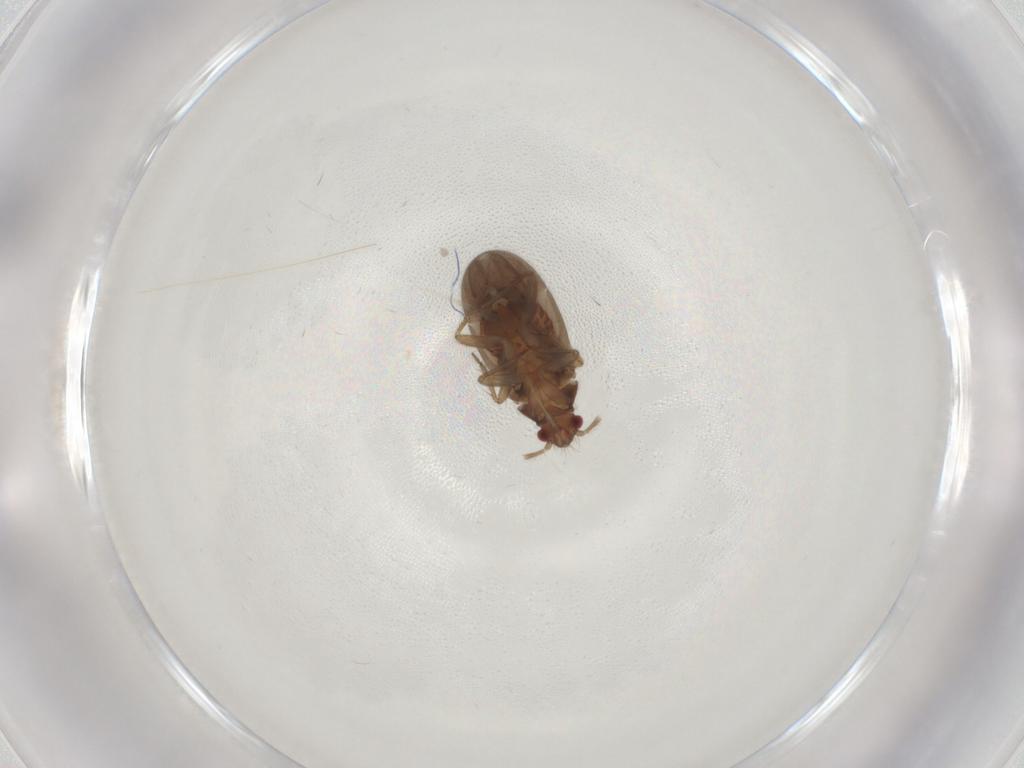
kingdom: Animalia
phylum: Arthropoda
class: Insecta
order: Hemiptera
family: Ceratocombidae
